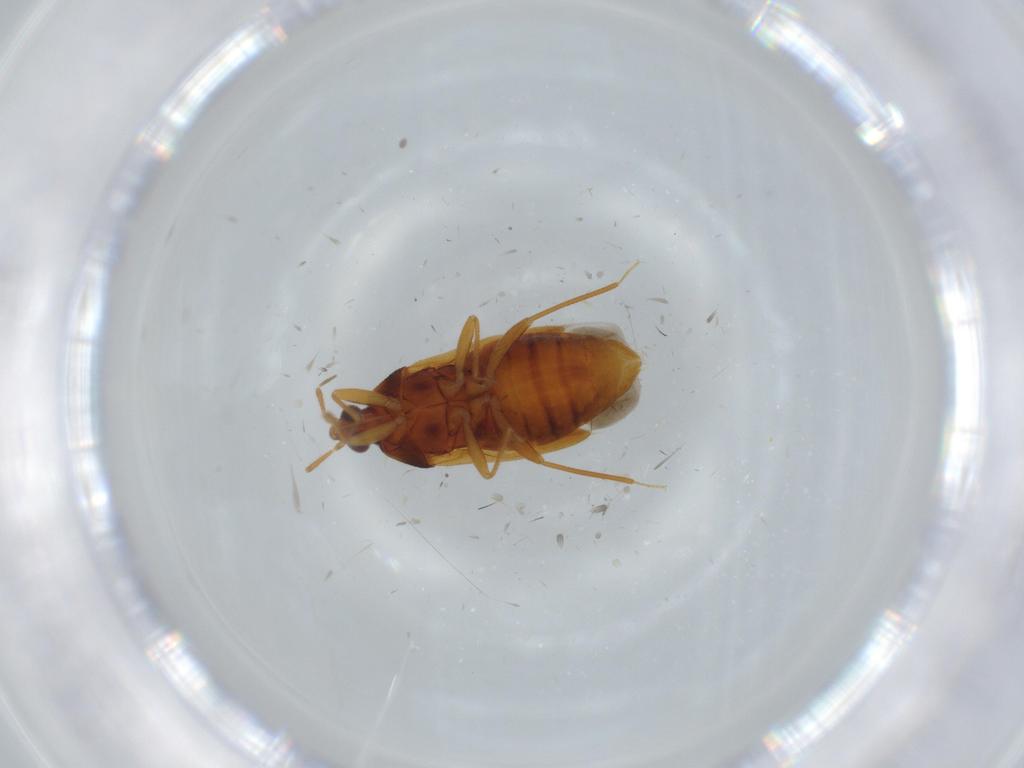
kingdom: Animalia
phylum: Arthropoda
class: Insecta
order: Hemiptera
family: Anthocoridae
